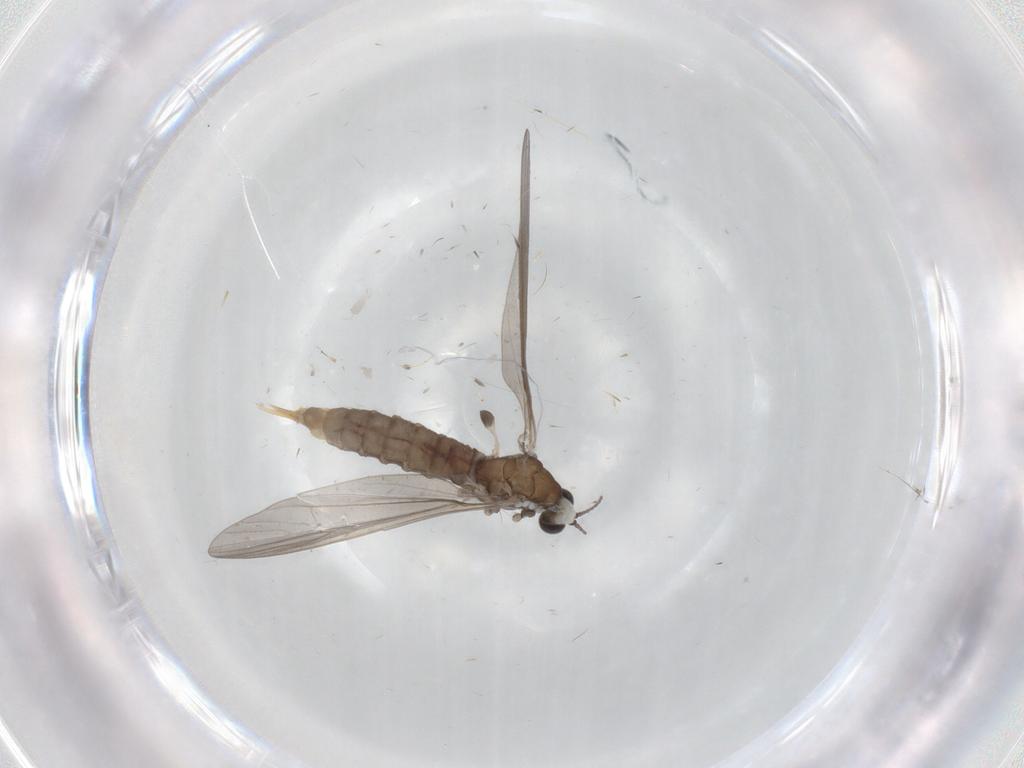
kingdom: Animalia
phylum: Arthropoda
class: Insecta
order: Diptera
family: Limoniidae
